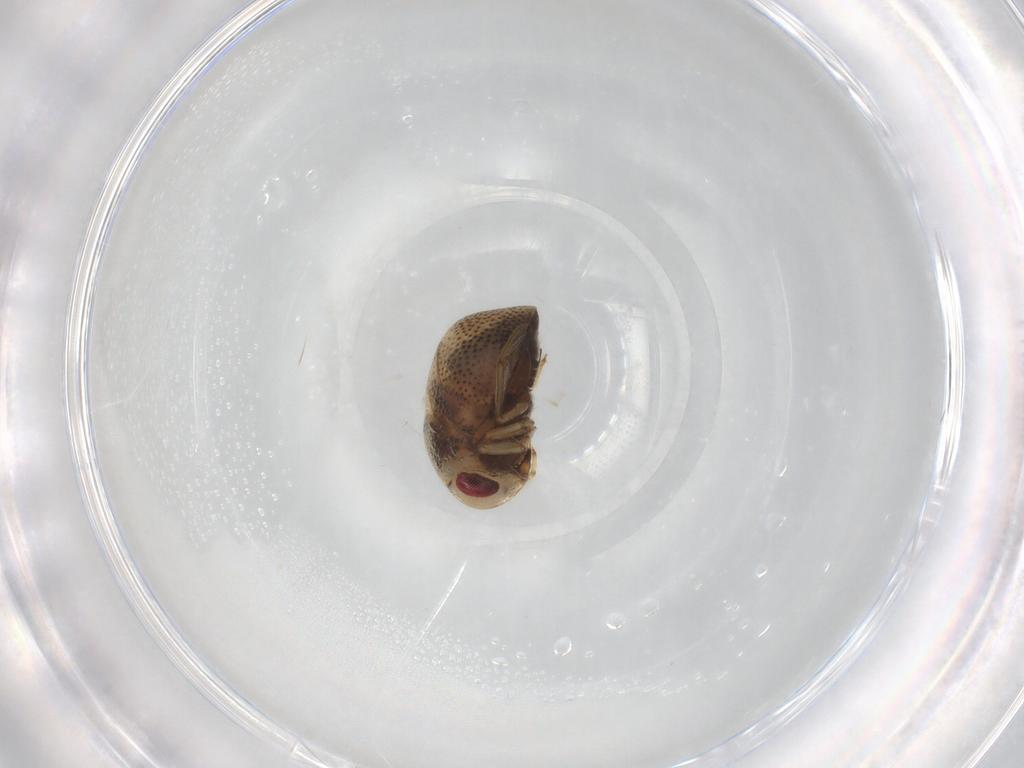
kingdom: Animalia
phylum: Arthropoda
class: Insecta
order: Hemiptera
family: Pleidae
